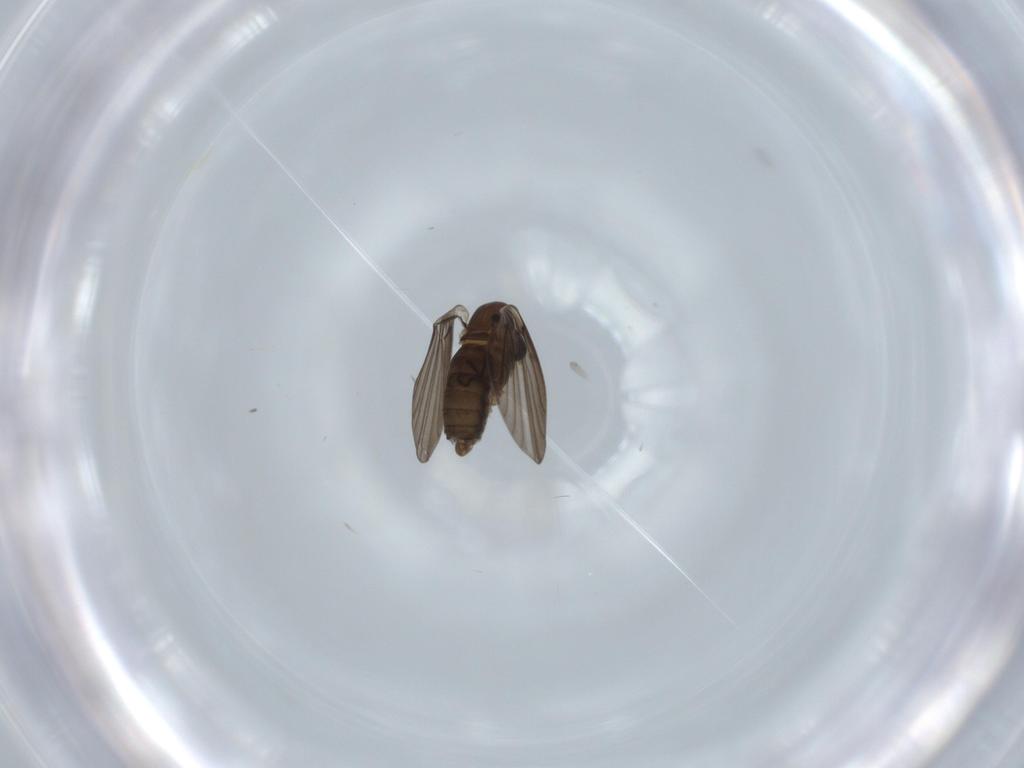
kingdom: Animalia
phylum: Arthropoda
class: Insecta
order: Diptera
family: Psychodidae
